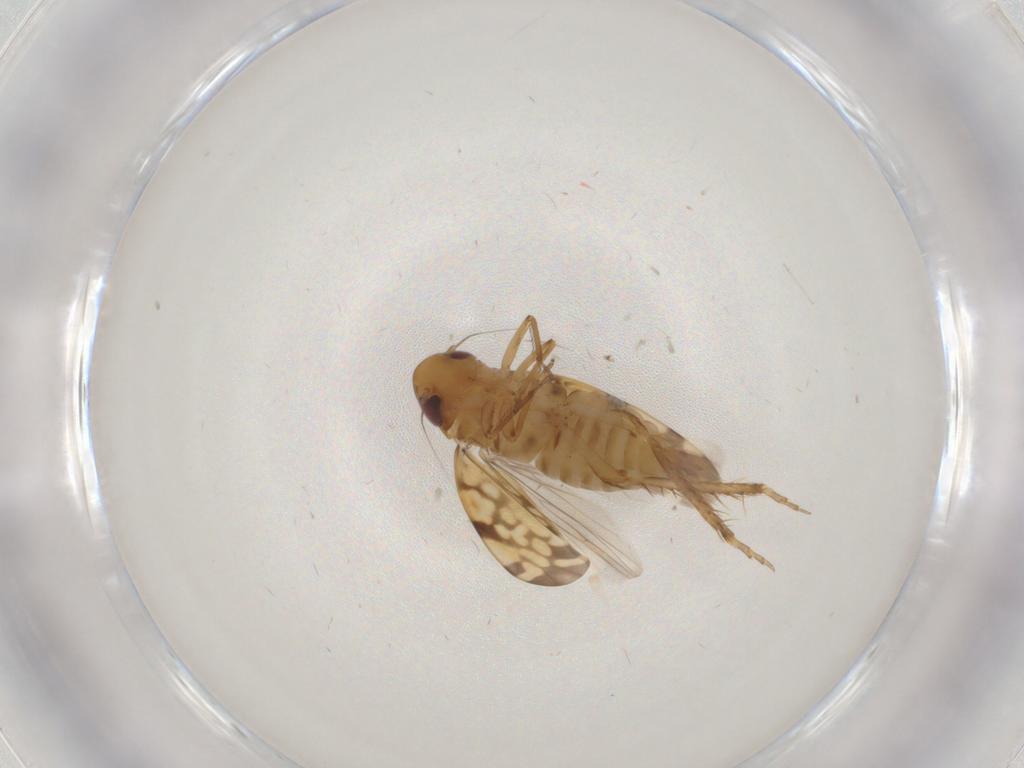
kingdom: Animalia
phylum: Arthropoda
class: Insecta
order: Hemiptera
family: Cicadellidae
